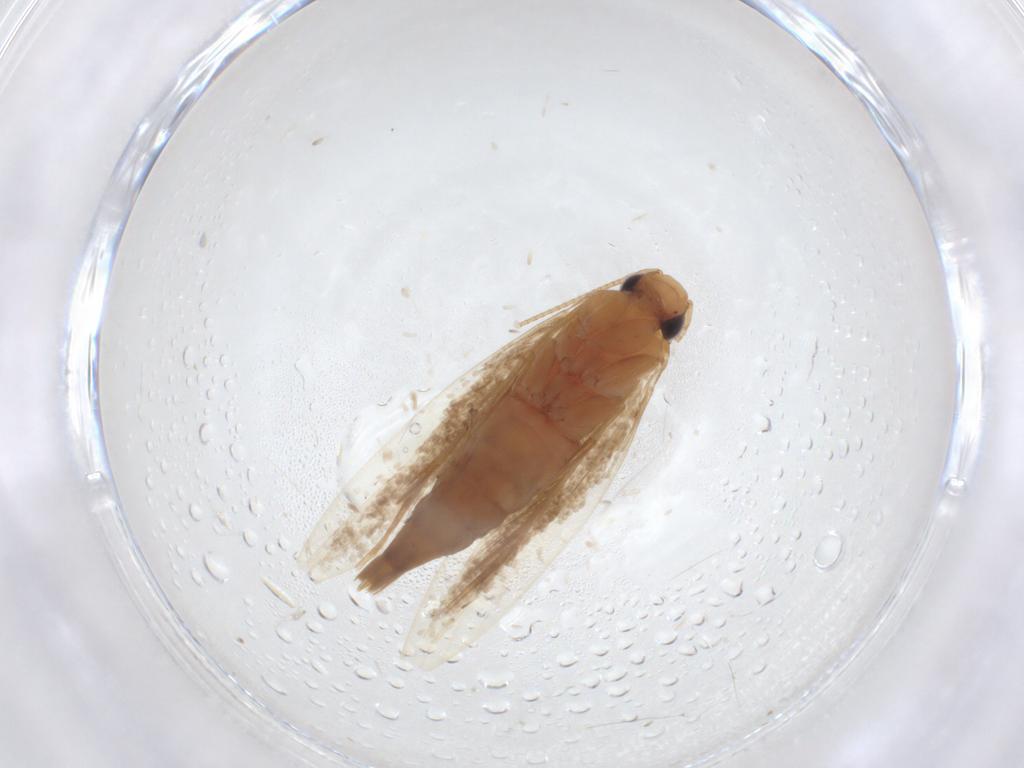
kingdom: Animalia
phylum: Arthropoda
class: Insecta
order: Lepidoptera
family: Tineidae
